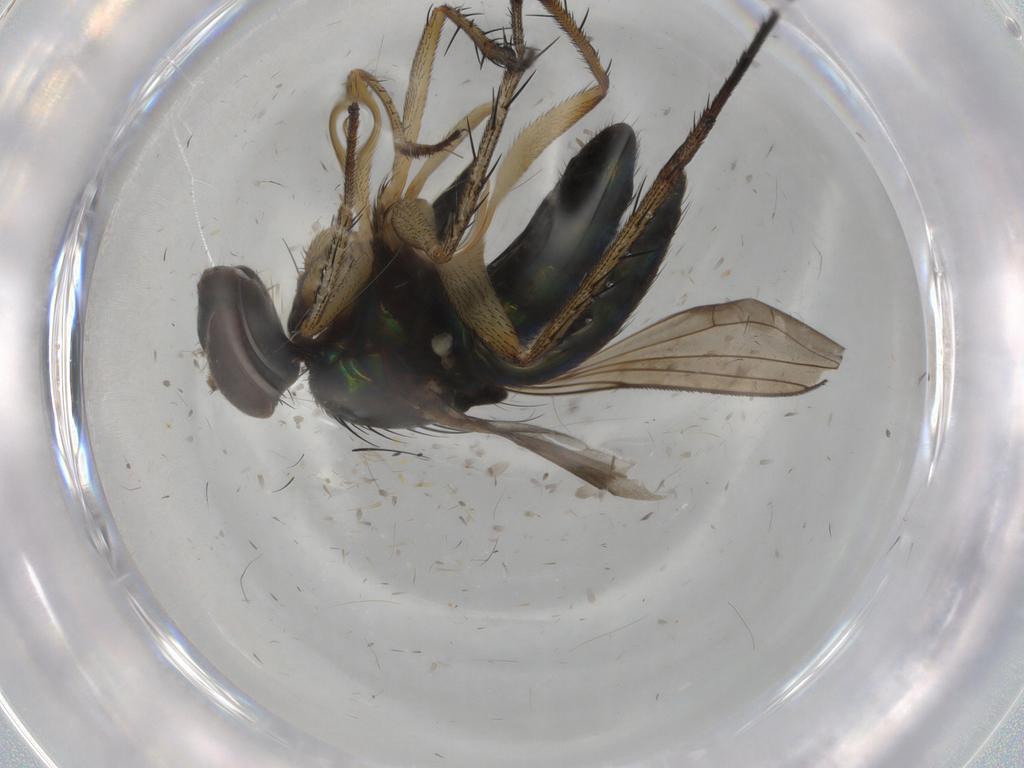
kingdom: Animalia
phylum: Arthropoda
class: Insecta
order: Diptera
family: Dolichopodidae
